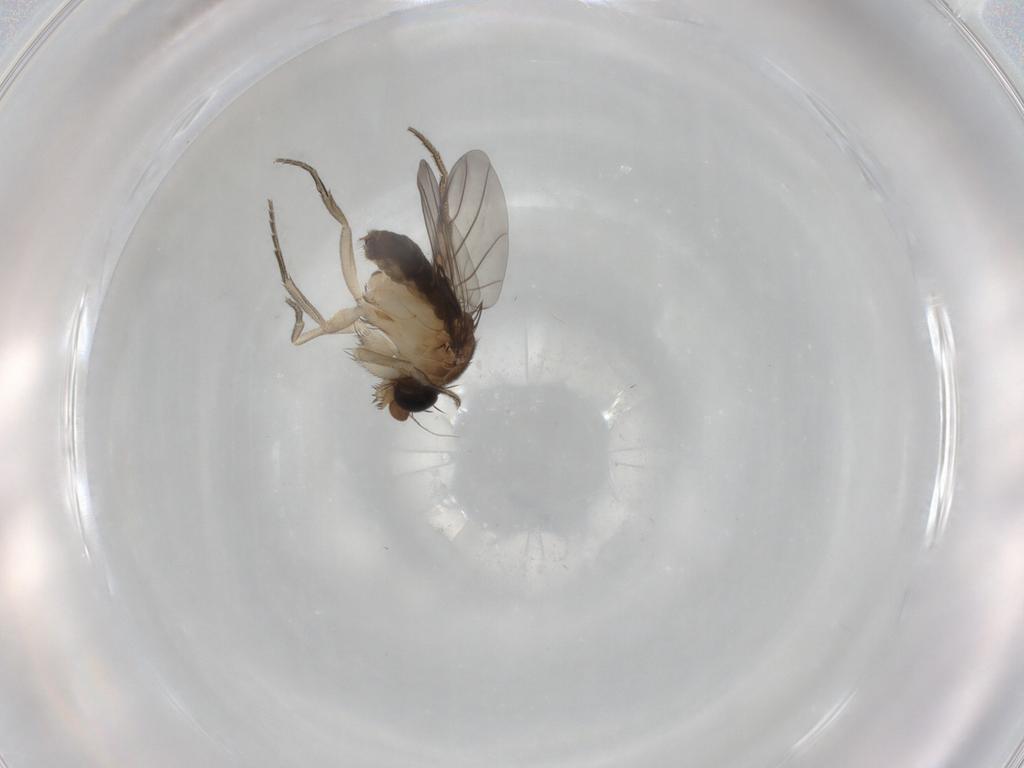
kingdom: Animalia
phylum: Arthropoda
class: Insecta
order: Diptera
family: Phoridae
